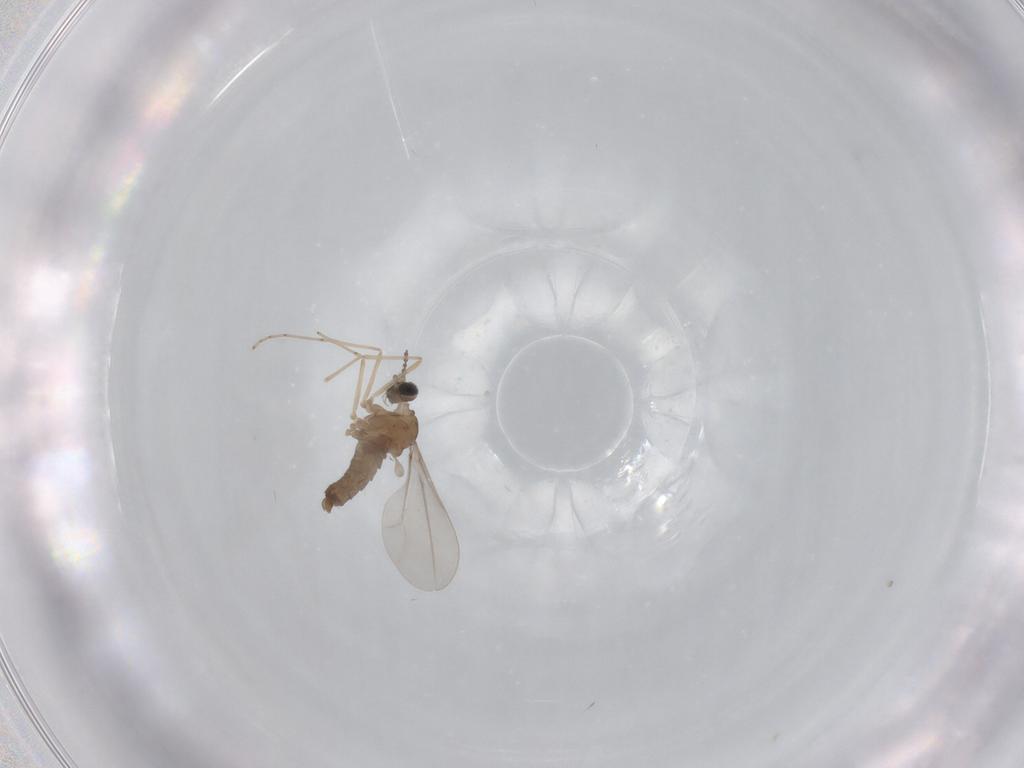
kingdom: Animalia
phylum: Arthropoda
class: Insecta
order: Diptera
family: Cecidomyiidae
